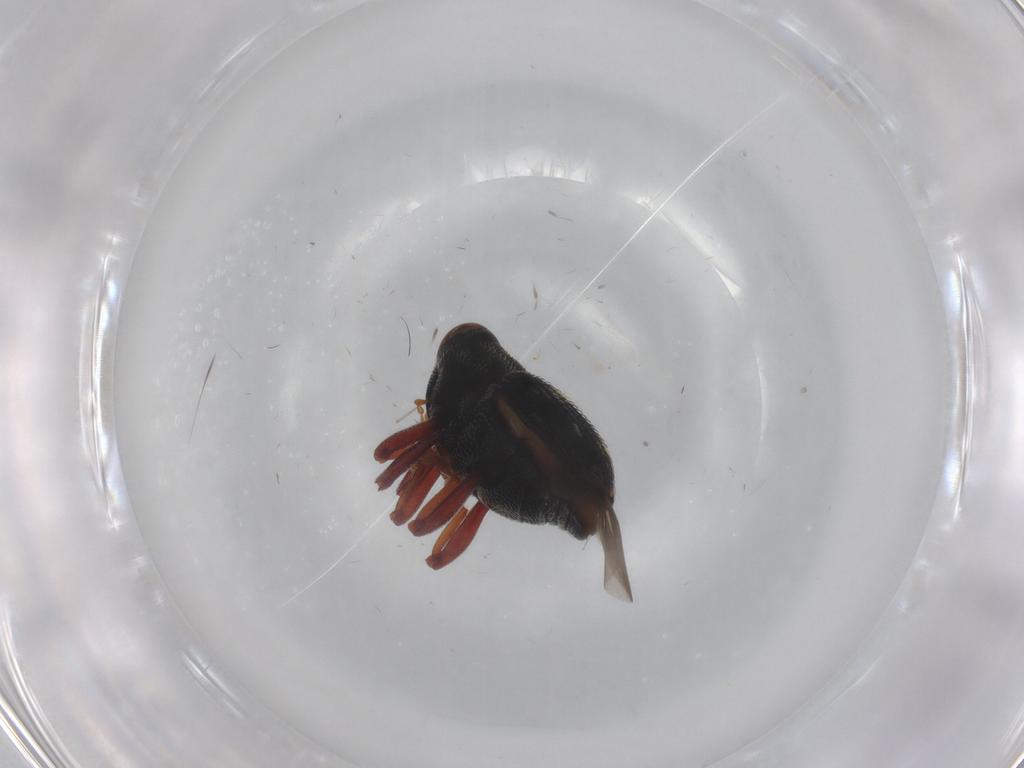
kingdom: Animalia
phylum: Arthropoda
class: Insecta
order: Coleoptera
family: Curculionidae
